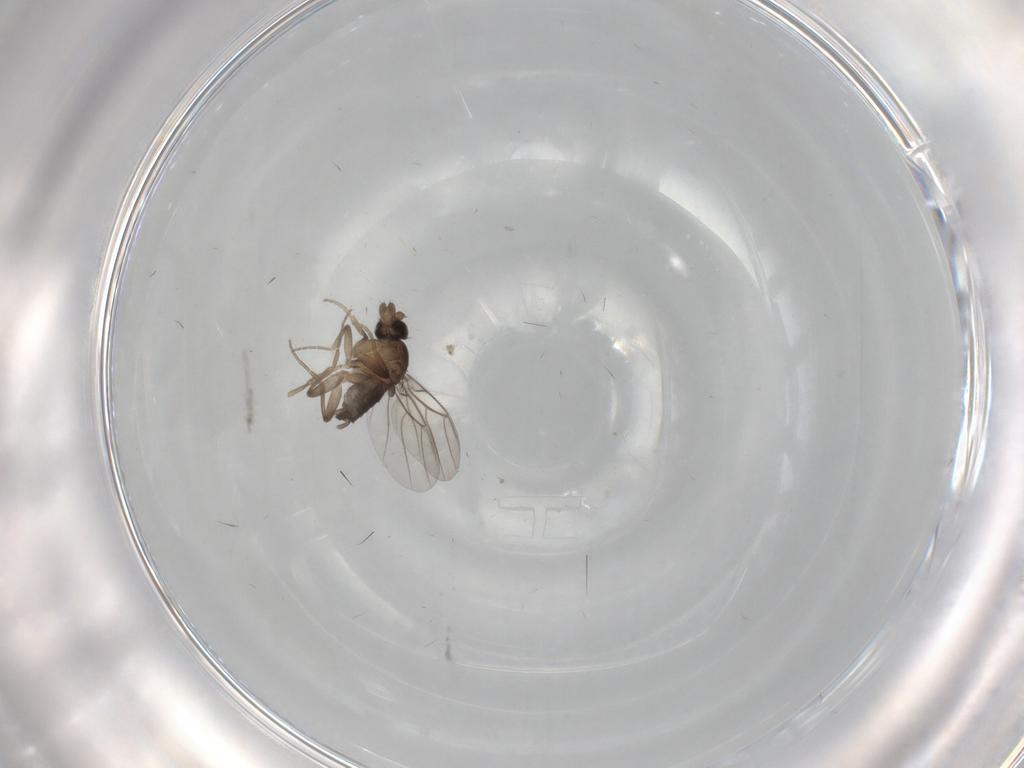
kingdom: Animalia
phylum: Arthropoda
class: Insecta
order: Diptera
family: Phoridae
